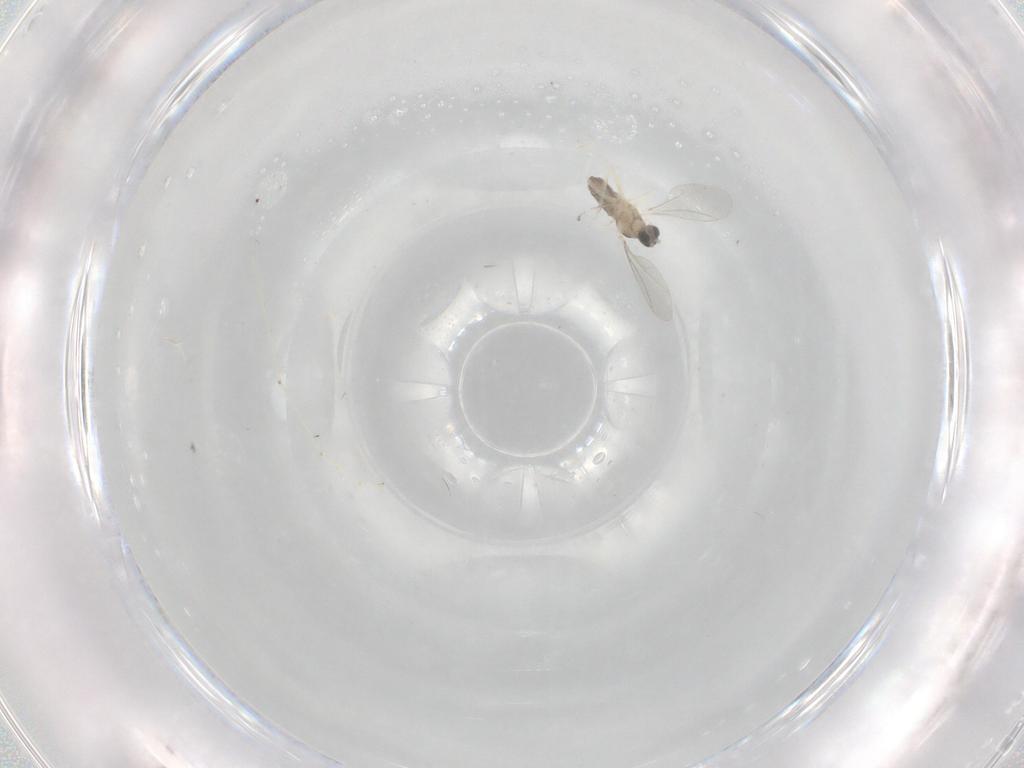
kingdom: Animalia
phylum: Arthropoda
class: Insecta
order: Diptera
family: Cecidomyiidae
